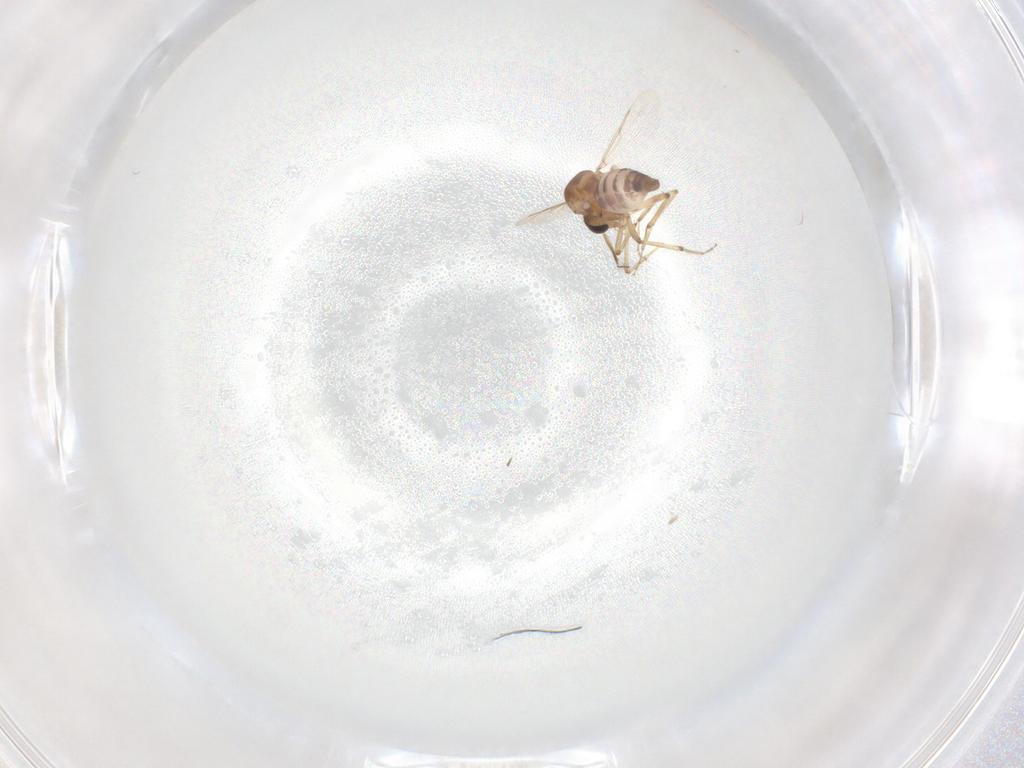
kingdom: Animalia
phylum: Arthropoda
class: Insecta
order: Diptera
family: Ceratopogonidae
